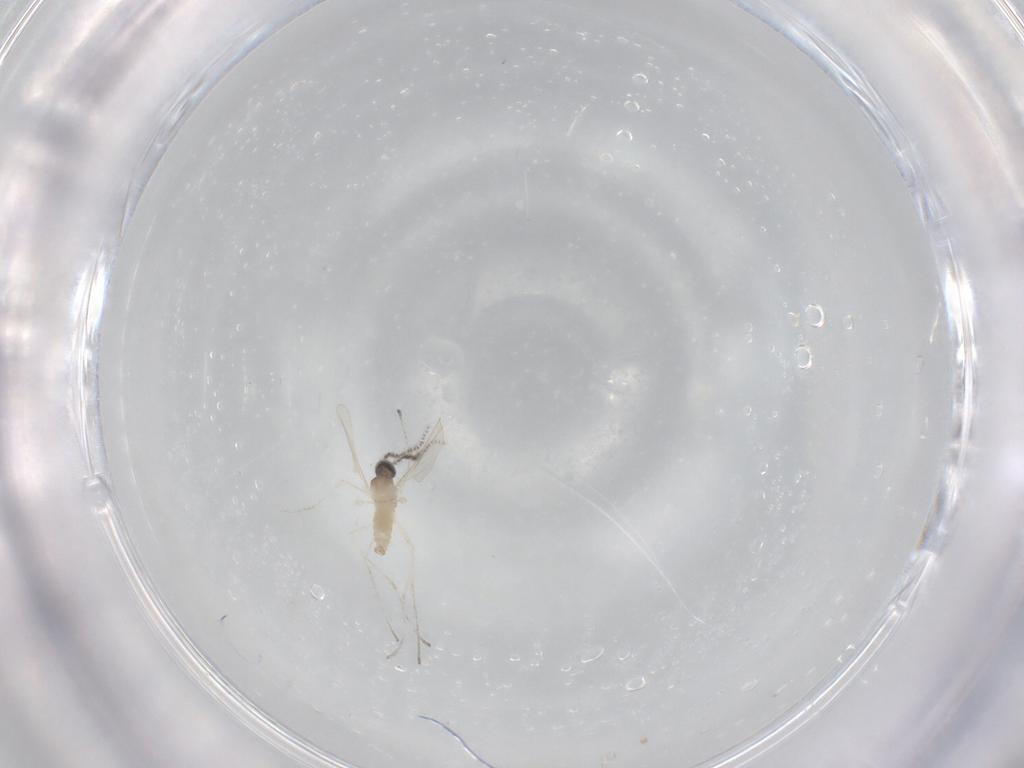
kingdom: Animalia
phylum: Arthropoda
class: Insecta
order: Diptera
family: Cecidomyiidae
